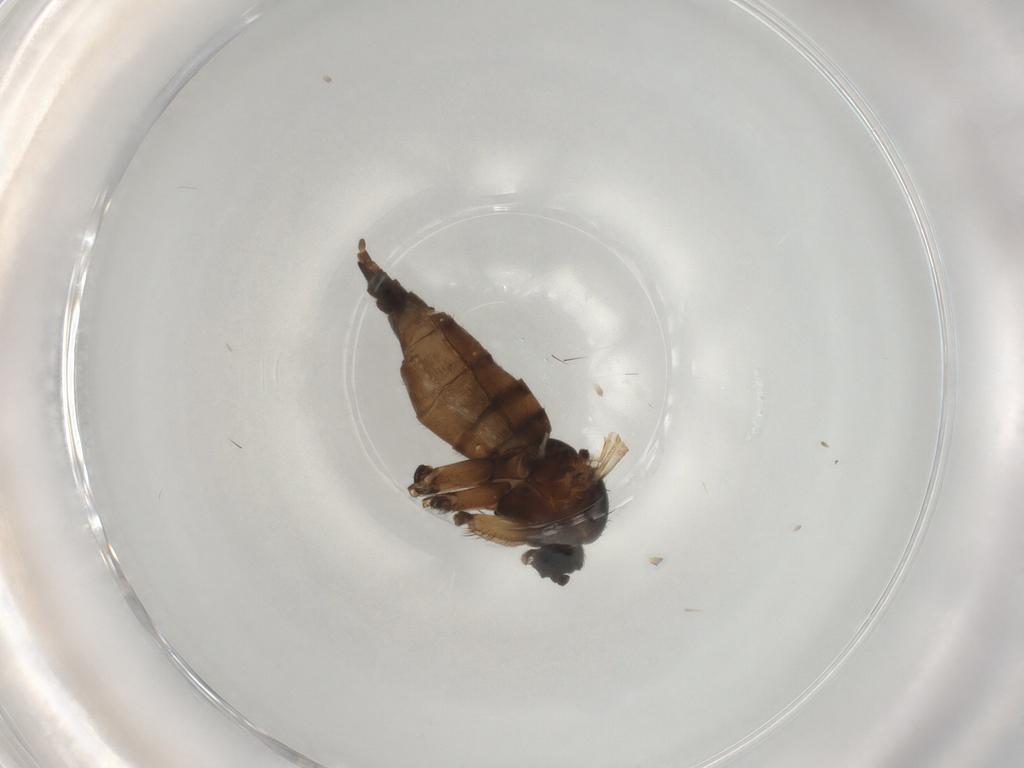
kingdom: Animalia
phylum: Arthropoda
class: Insecta
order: Diptera
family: Sciaridae
